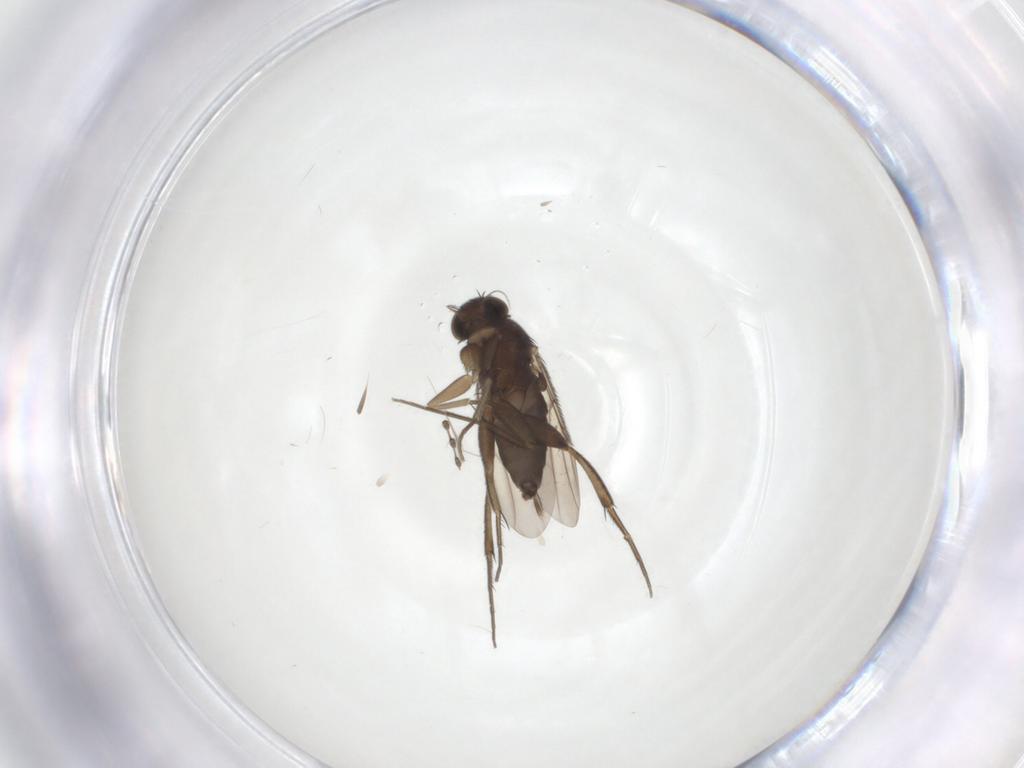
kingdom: Animalia
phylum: Arthropoda
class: Insecta
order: Diptera
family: Phoridae
